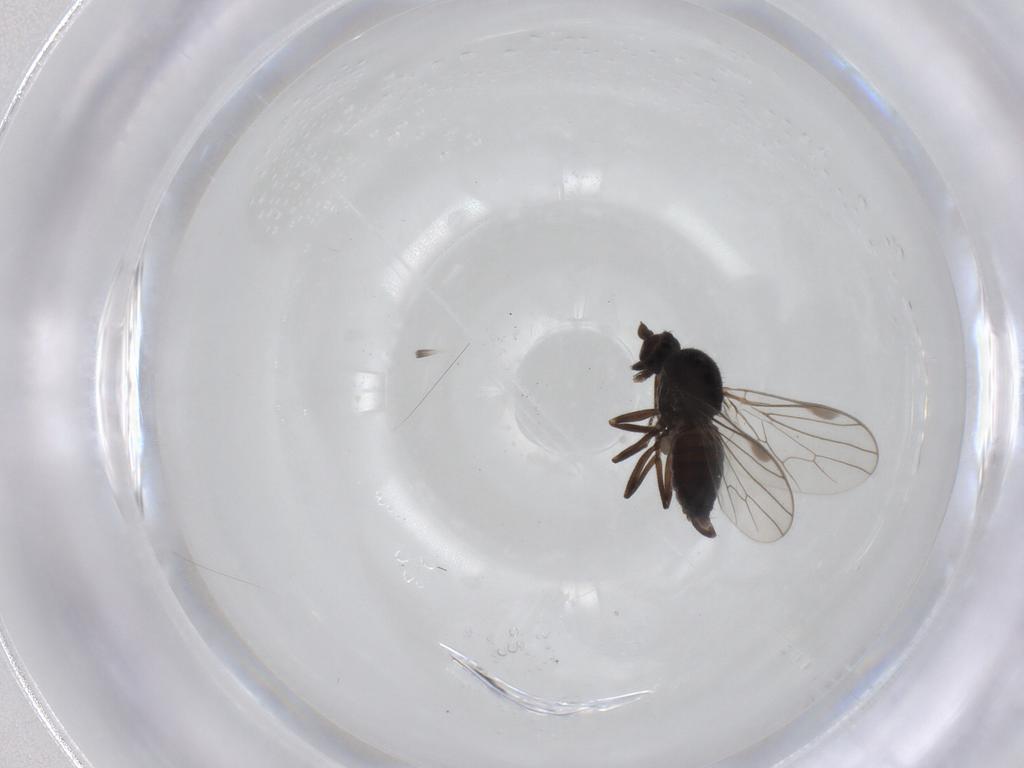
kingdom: Animalia
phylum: Arthropoda
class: Insecta
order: Diptera
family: Hybotidae
